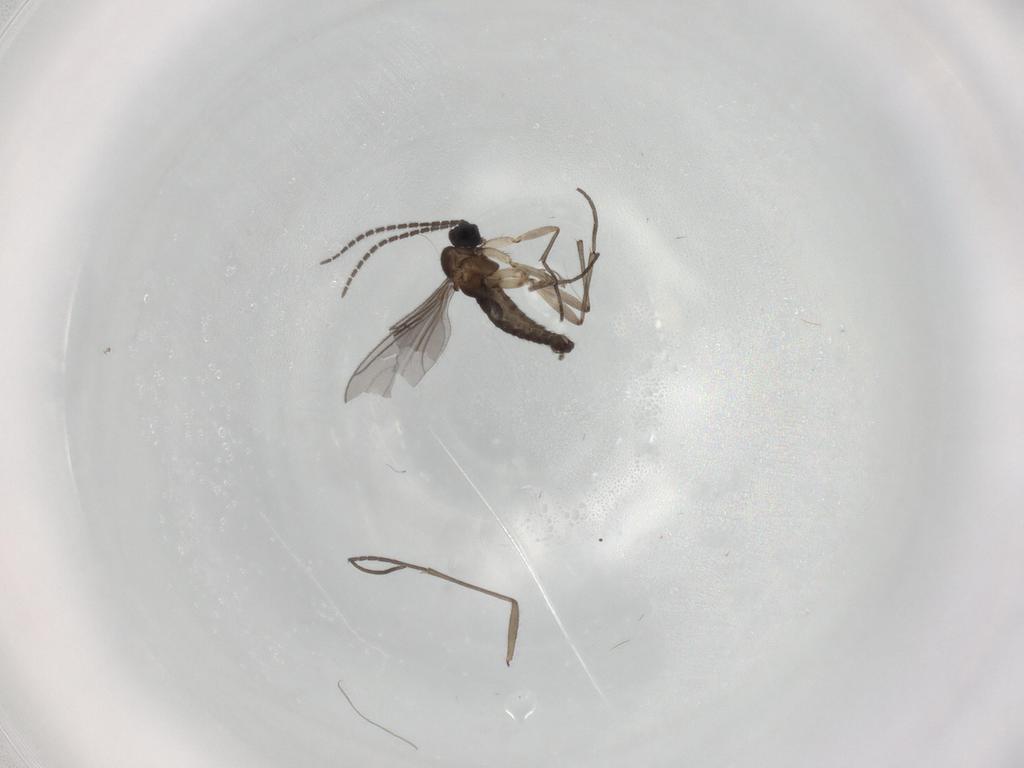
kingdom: Animalia
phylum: Arthropoda
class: Insecta
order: Diptera
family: Sciaridae
